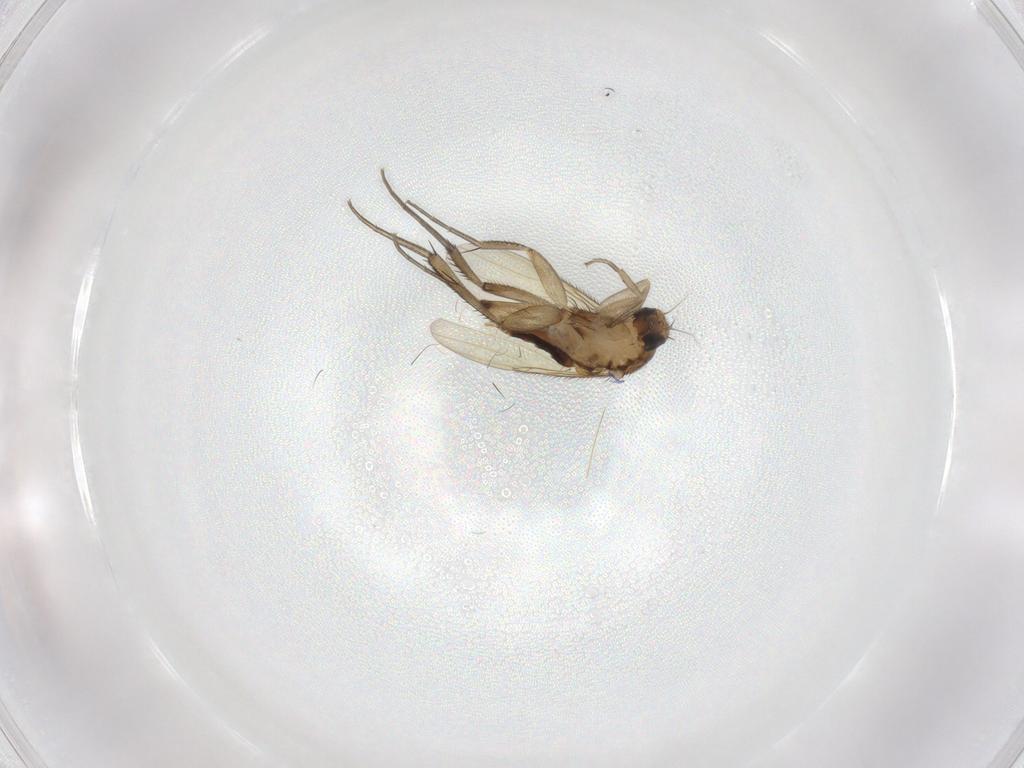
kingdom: Animalia
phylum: Arthropoda
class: Insecta
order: Diptera
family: Phoridae
